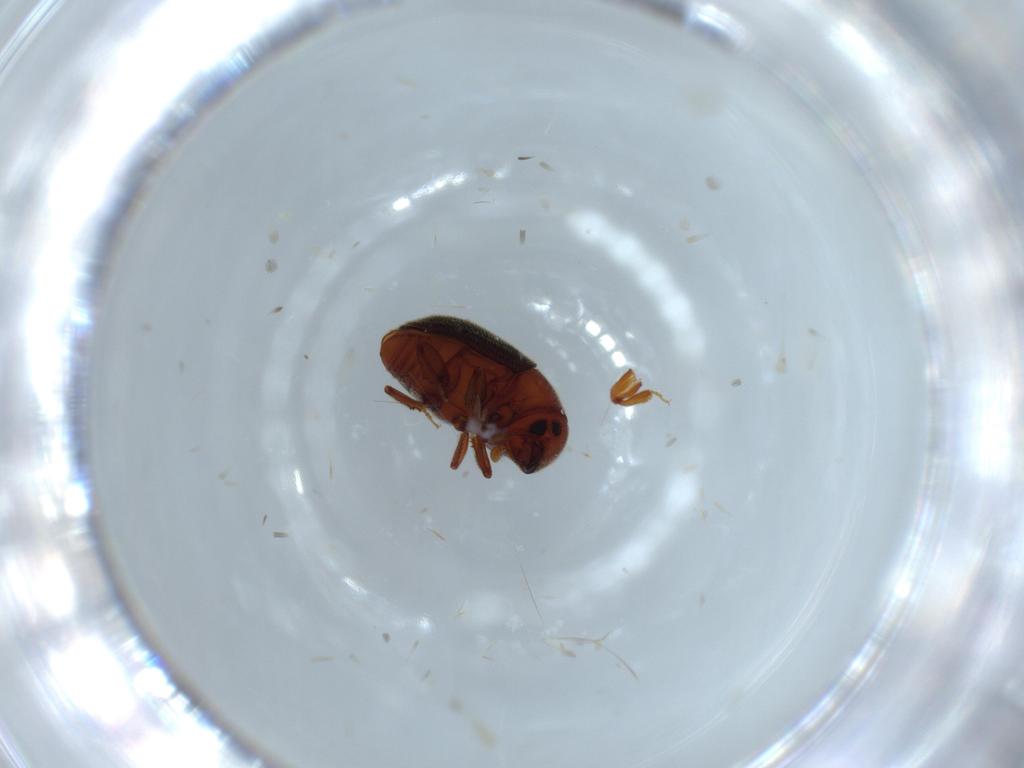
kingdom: Animalia
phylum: Arthropoda
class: Insecta
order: Coleoptera
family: Curculionidae
